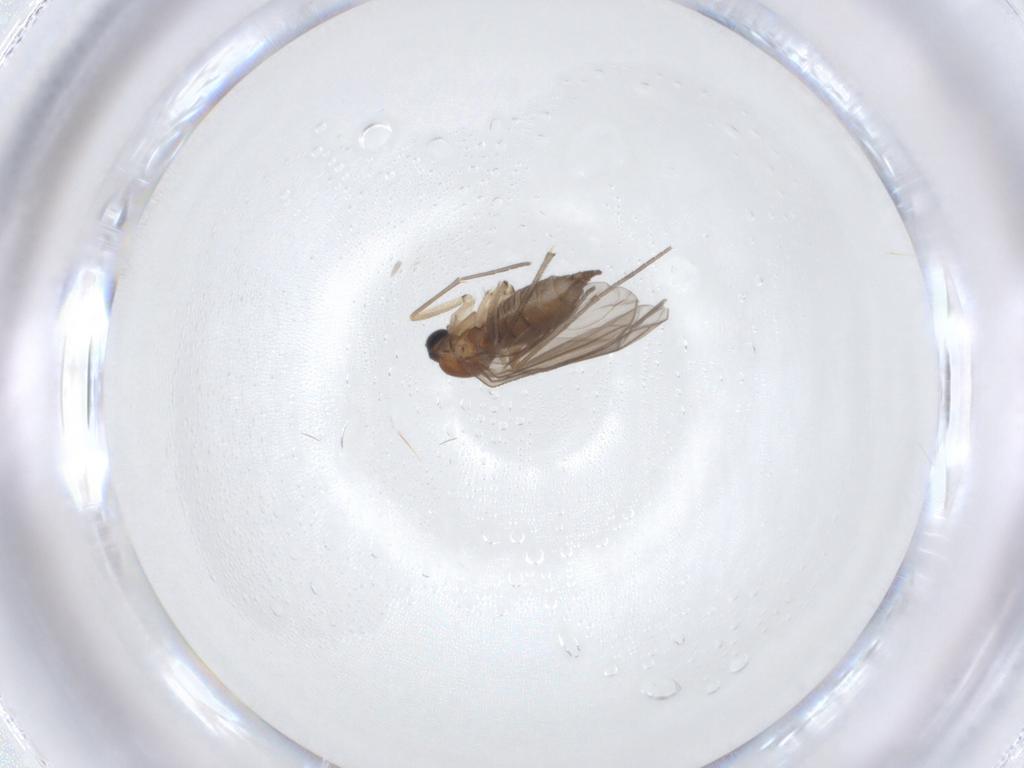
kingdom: Animalia
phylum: Arthropoda
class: Insecta
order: Diptera
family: Sciaridae
